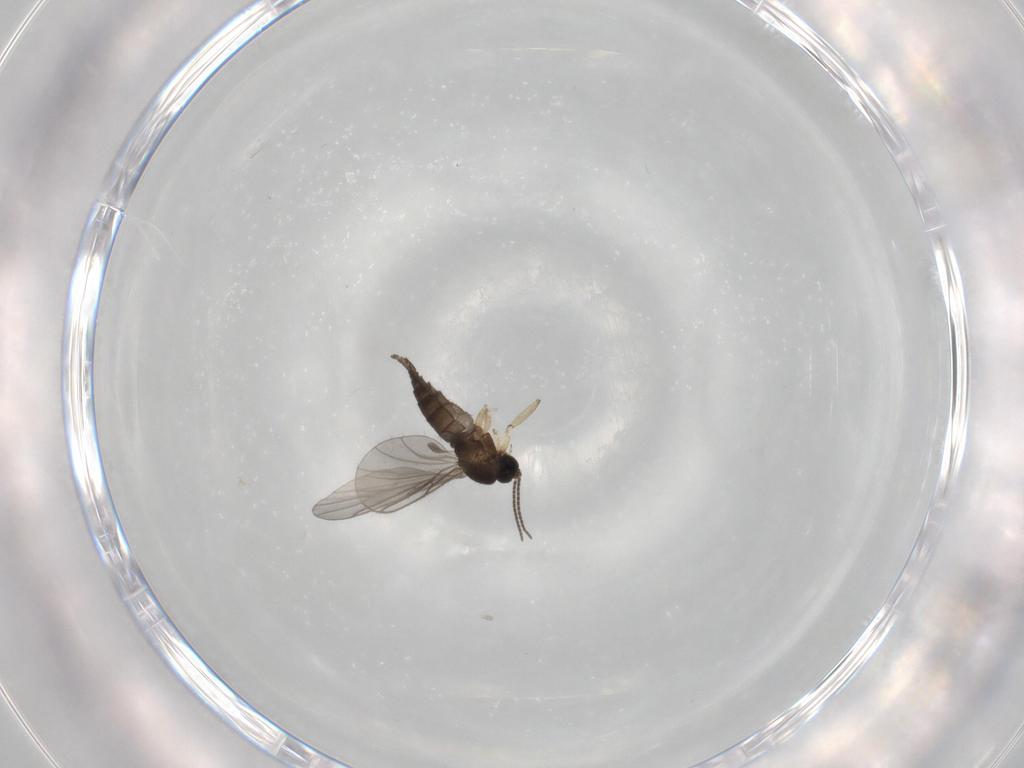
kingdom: Animalia
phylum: Arthropoda
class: Insecta
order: Diptera
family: Sciaridae
